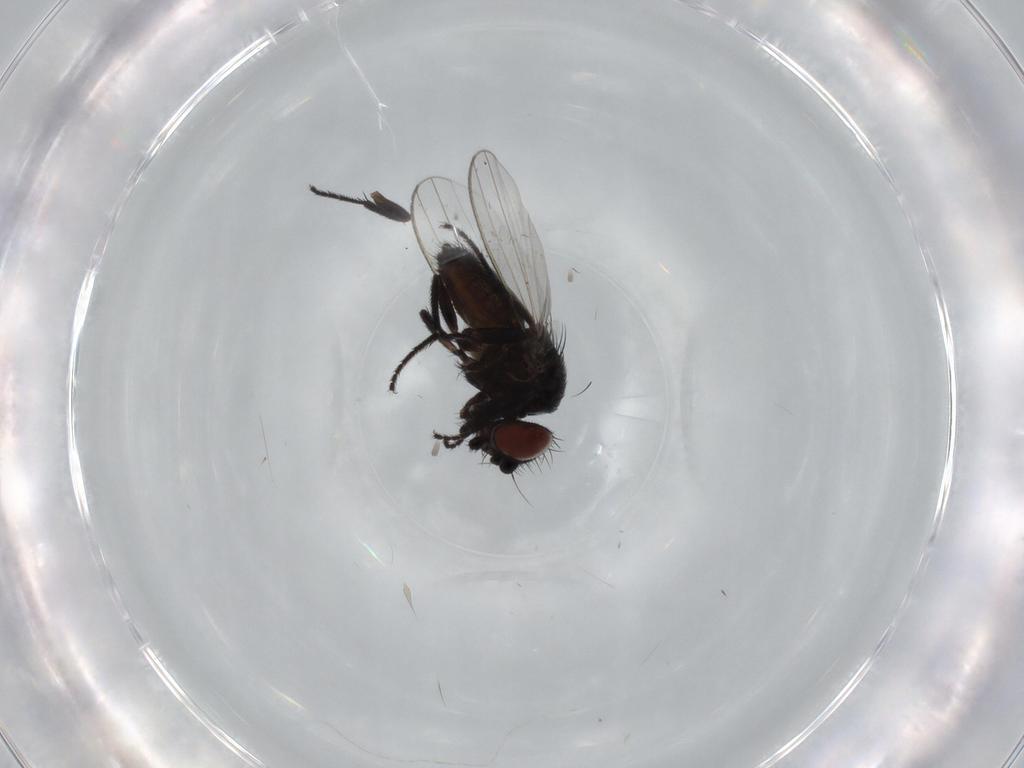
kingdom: Animalia
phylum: Arthropoda
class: Insecta
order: Diptera
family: Milichiidae
